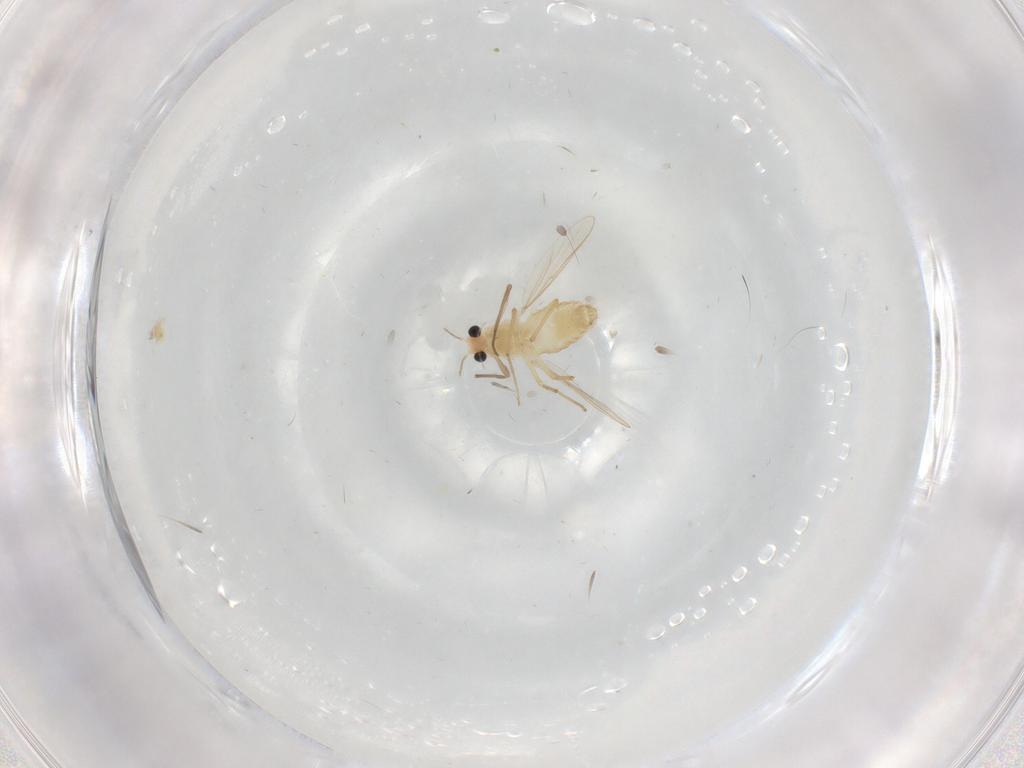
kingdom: Animalia
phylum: Arthropoda
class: Insecta
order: Diptera
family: Chironomidae
